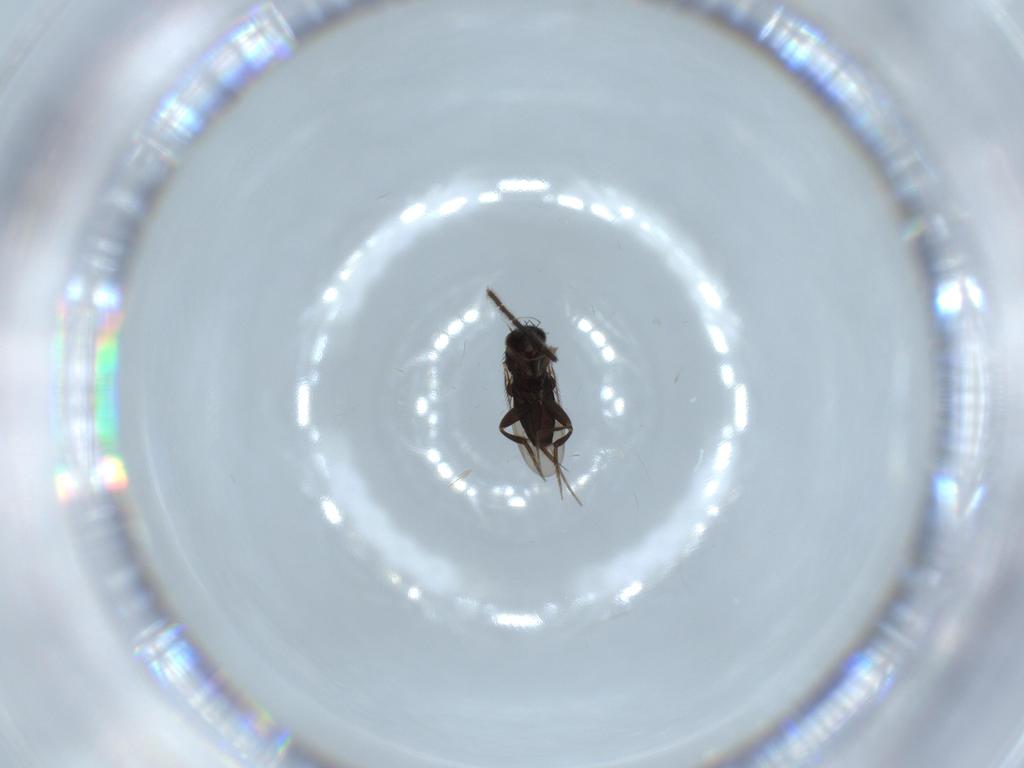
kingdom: Animalia
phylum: Arthropoda
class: Insecta
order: Diptera
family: Sciaridae
